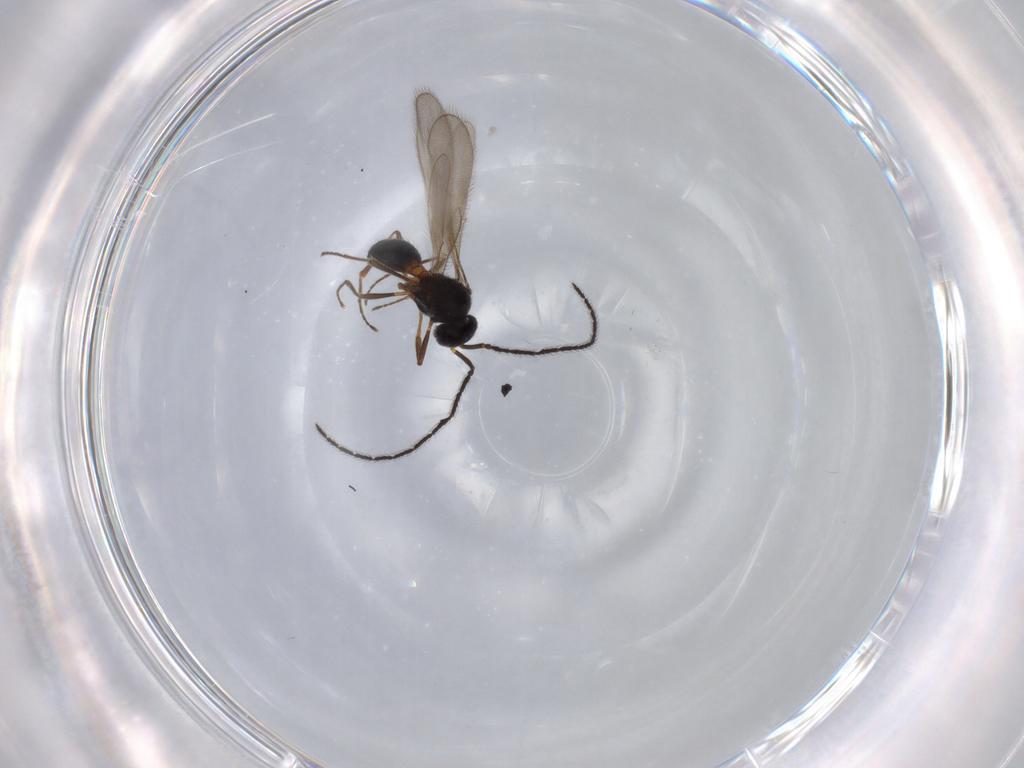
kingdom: Animalia
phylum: Arthropoda
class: Insecta
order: Hymenoptera
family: Scelionidae
